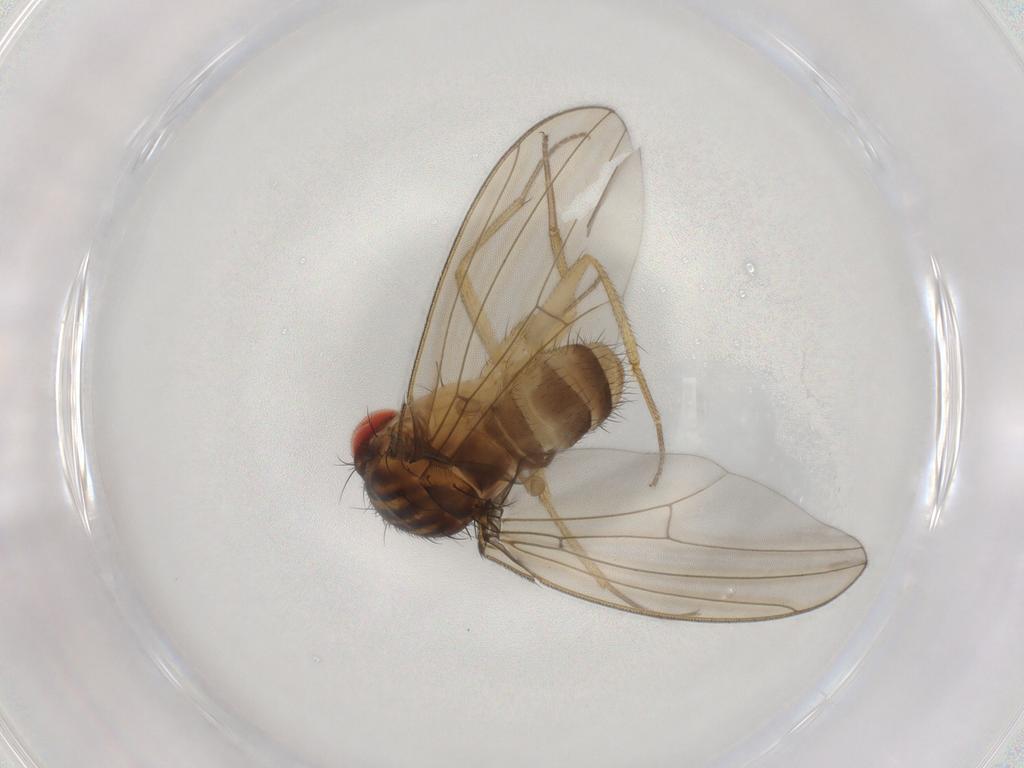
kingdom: Animalia
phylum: Arthropoda
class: Insecta
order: Diptera
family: Drosophilidae
